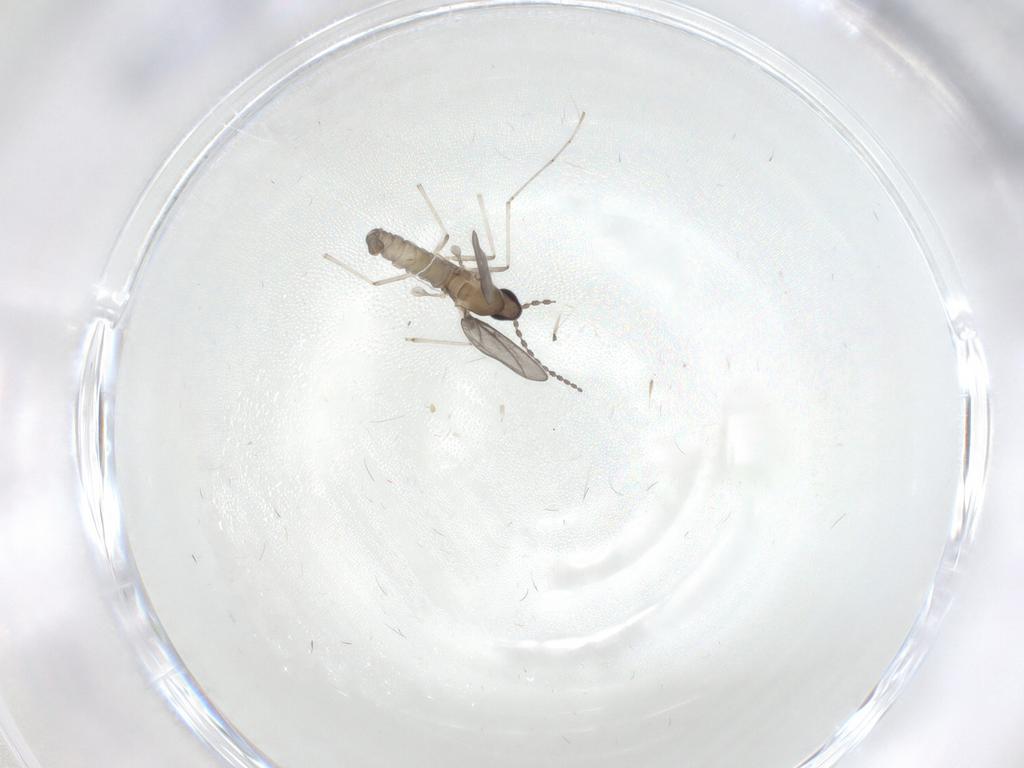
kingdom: Animalia
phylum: Arthropoda
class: Insecta
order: Diptera
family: Cecidomyiidae
